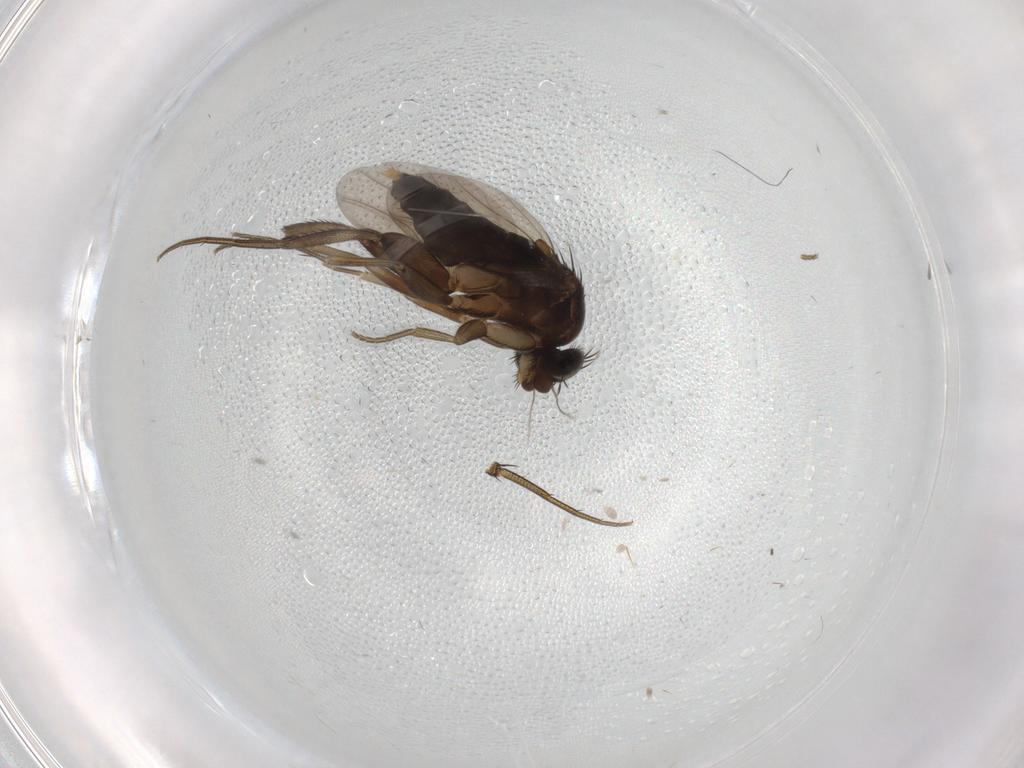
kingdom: Animalia
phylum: Arthropoda
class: Insecta
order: Diptera
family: Phoridae
